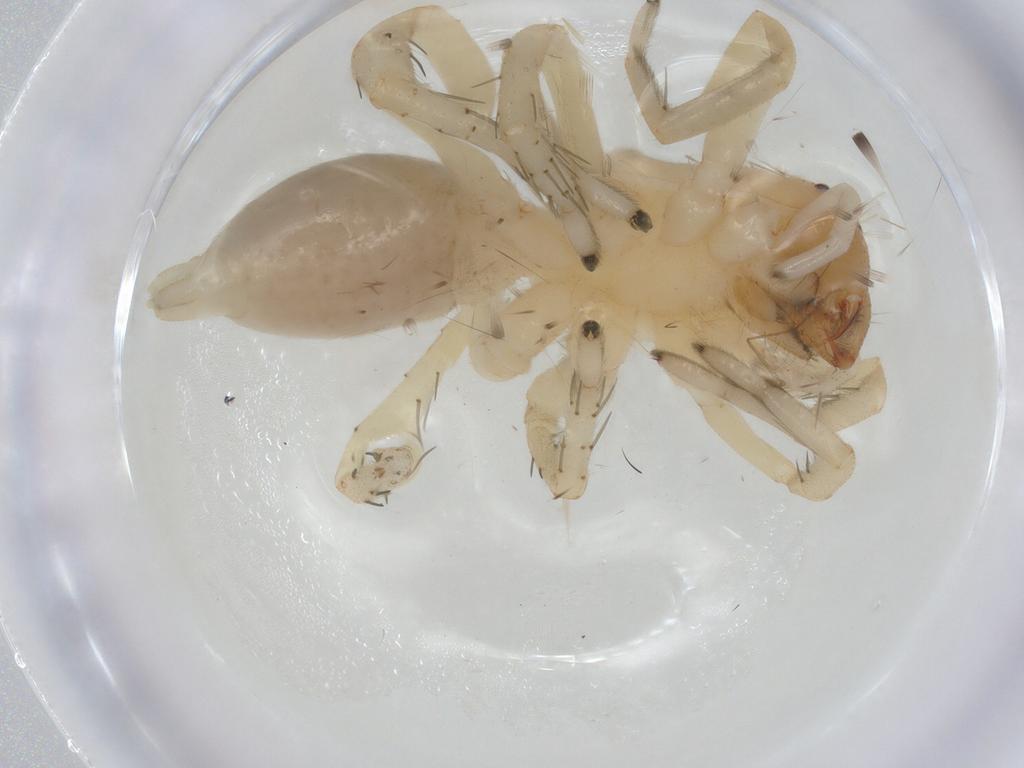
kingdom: Animalia
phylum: Arthropoda
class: Arachnida
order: Araneae
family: Clubionidae
